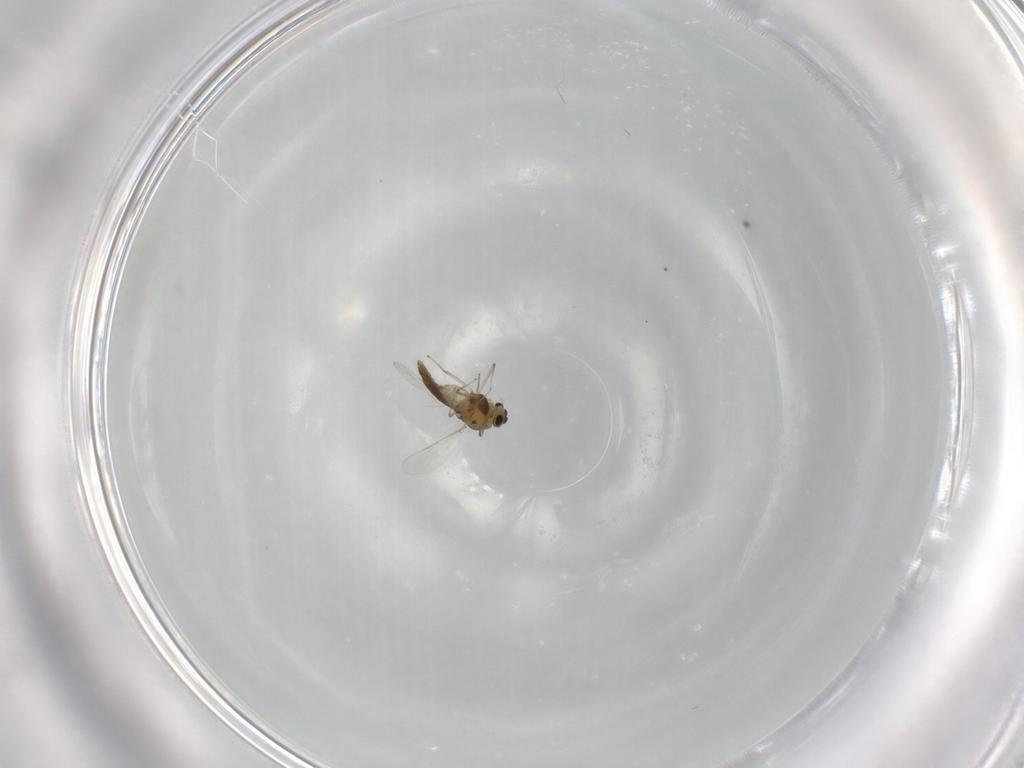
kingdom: Animalia
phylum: Arthropoda
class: Insecta
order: Diptera
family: Chironomidae
